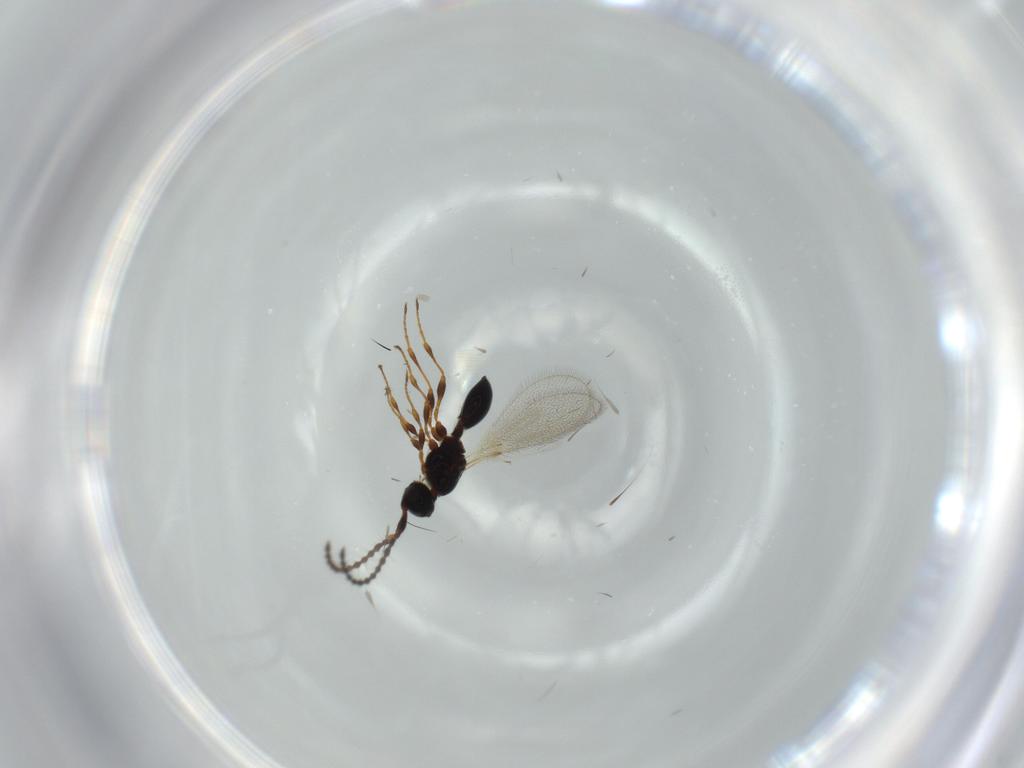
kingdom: Animalia
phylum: Arthropoda
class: Insecta
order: Hymenoptera
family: Diapriidae
